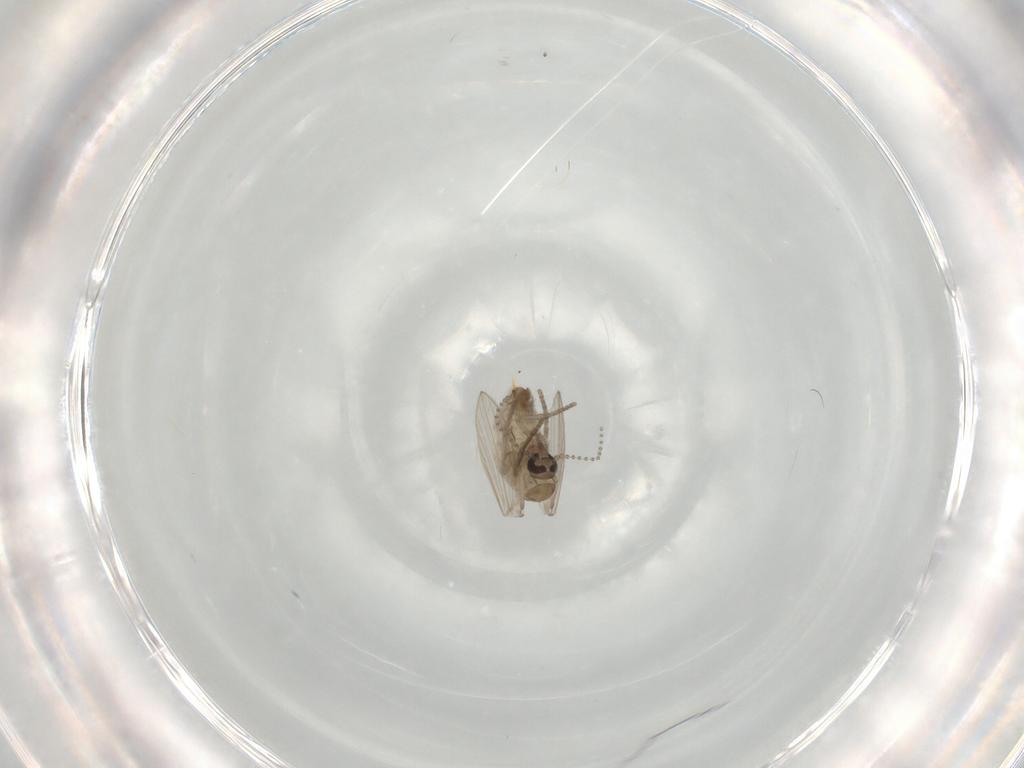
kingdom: Animalia
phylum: Arthropoda
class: Insecta
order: Diptera
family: Psychodidae
